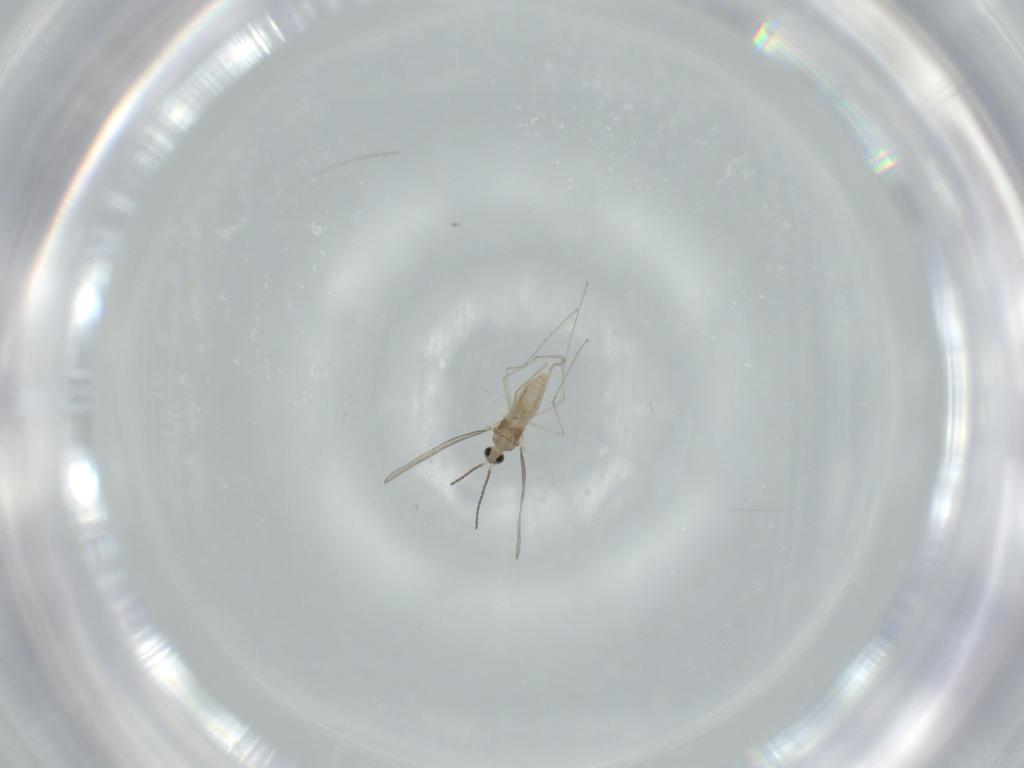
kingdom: Animalia
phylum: Arthropoda
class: Insecta
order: Diptera
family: Cecidomyiidae
